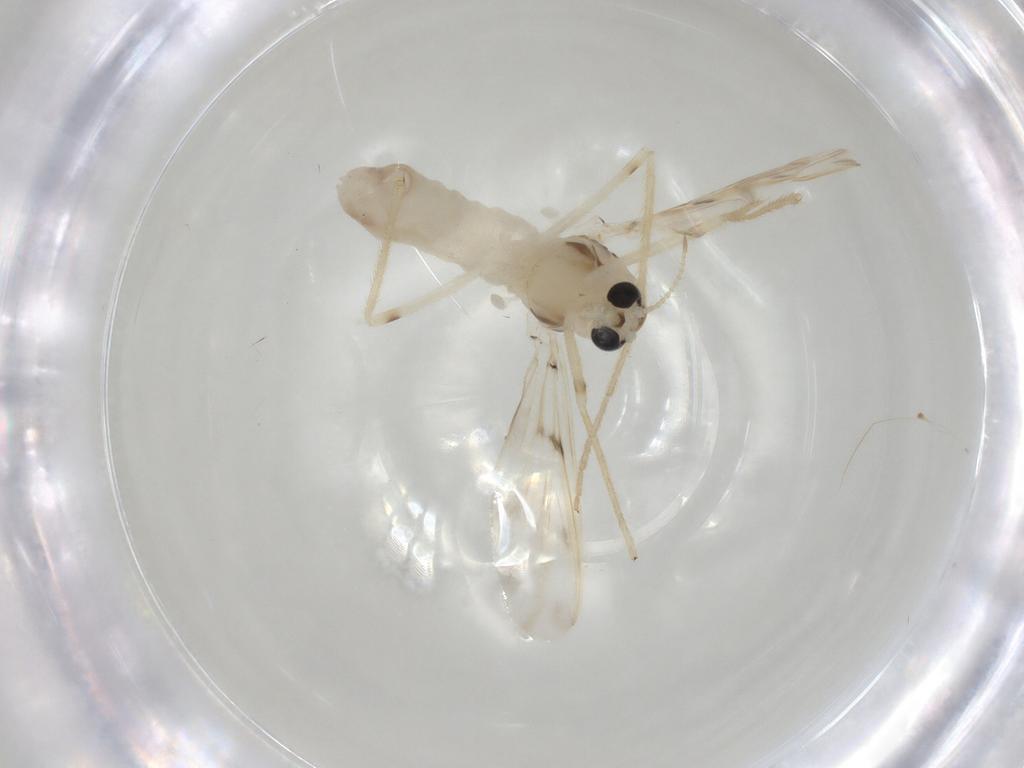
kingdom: Animalia
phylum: Arthropoda
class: Insecta
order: Diptera
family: Chironomidae
